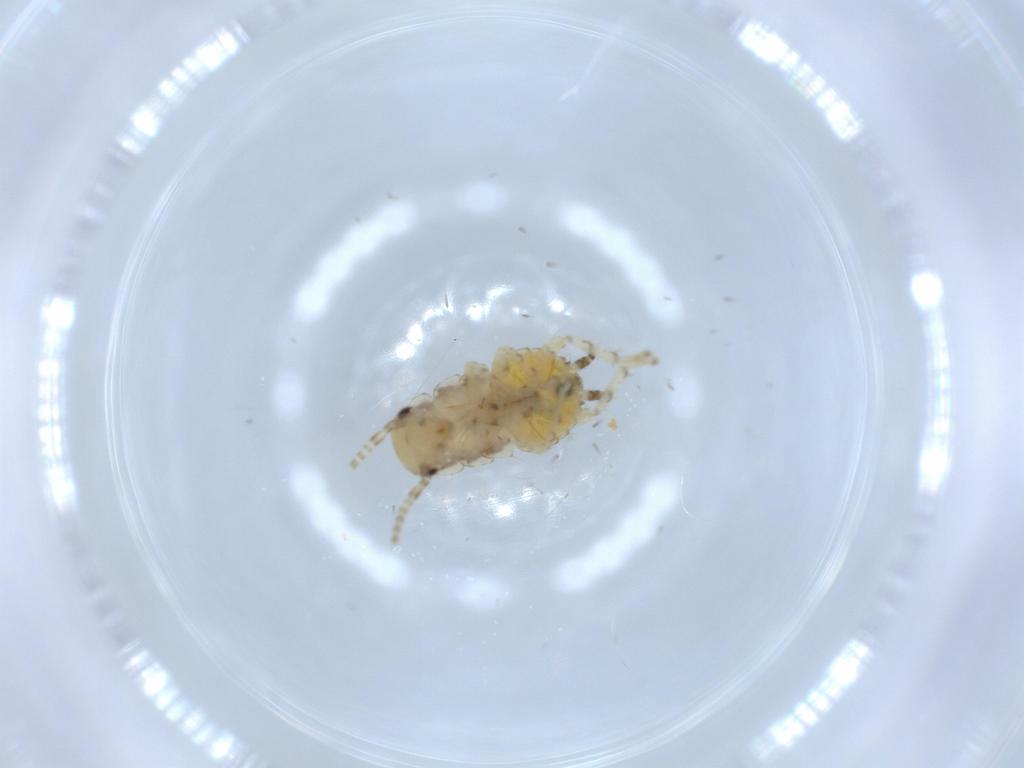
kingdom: Animalia
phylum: Arthropoda
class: Insecta
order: Blattodea
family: Ectobiidae
